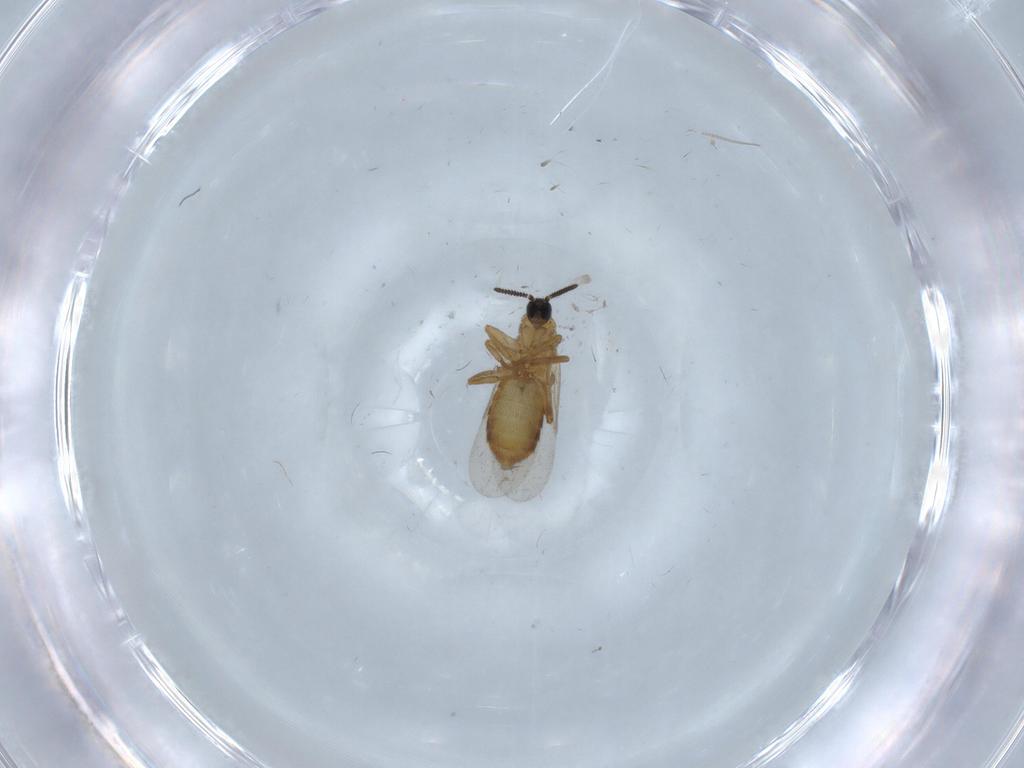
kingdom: Animalia
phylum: Arthropoda
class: Insecta
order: Diptera
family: Scatopsidae
